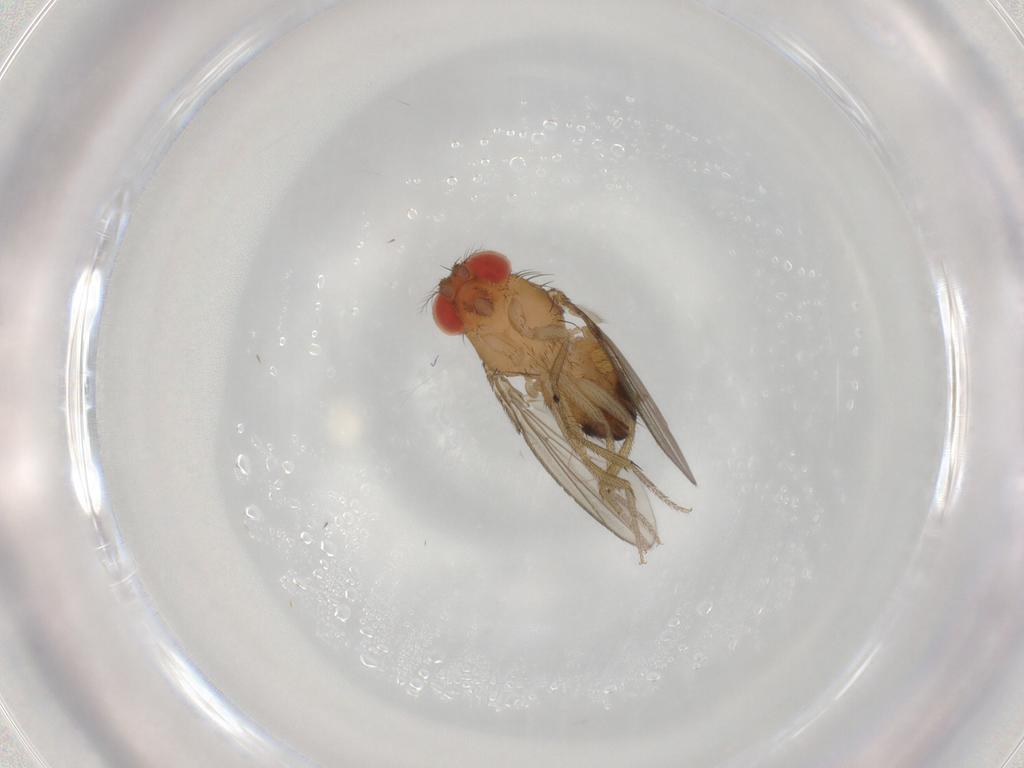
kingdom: Animalia
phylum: Arthropoda
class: Insecta
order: Diptera
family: Drosophilidae
